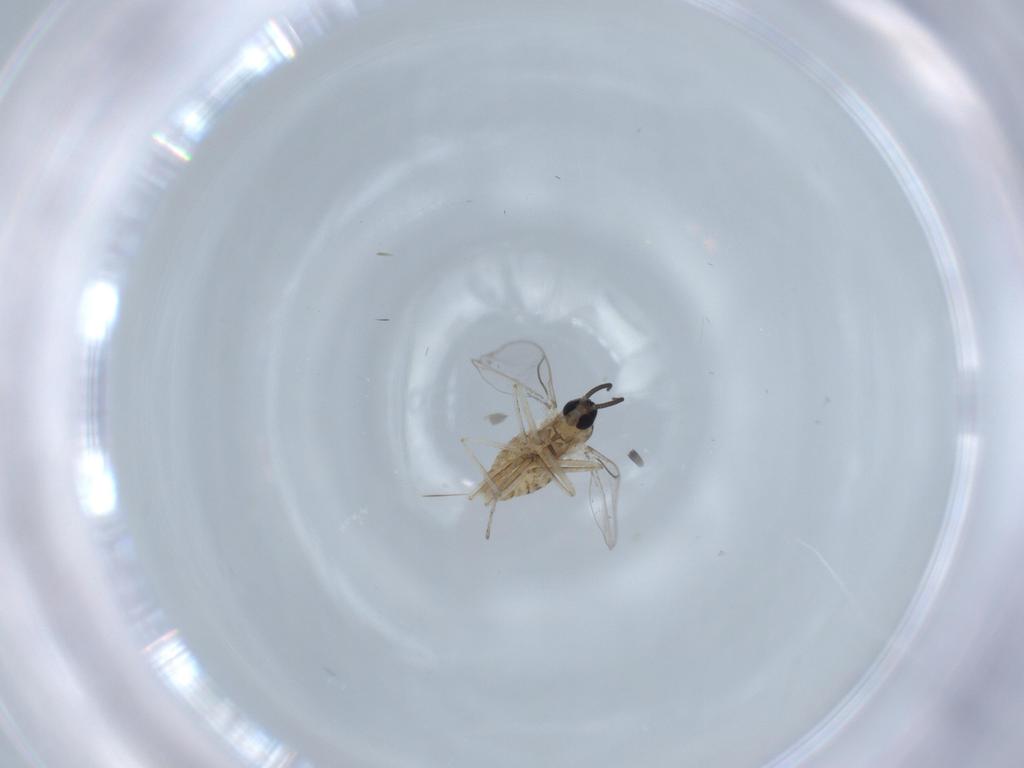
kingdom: Animalia
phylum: Arthropoda
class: Insecta
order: Diptera
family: Cecidomyiidae
